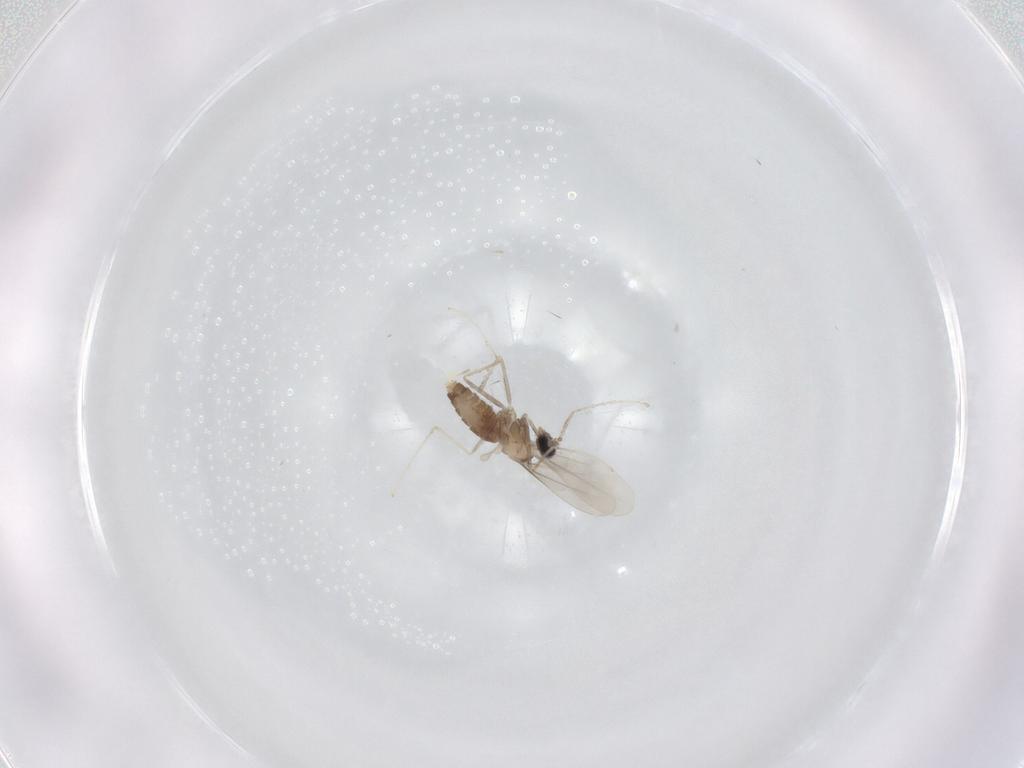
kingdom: Animalia
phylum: Arthropoda
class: Insecta
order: Diptera
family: Cecidomyiidae
